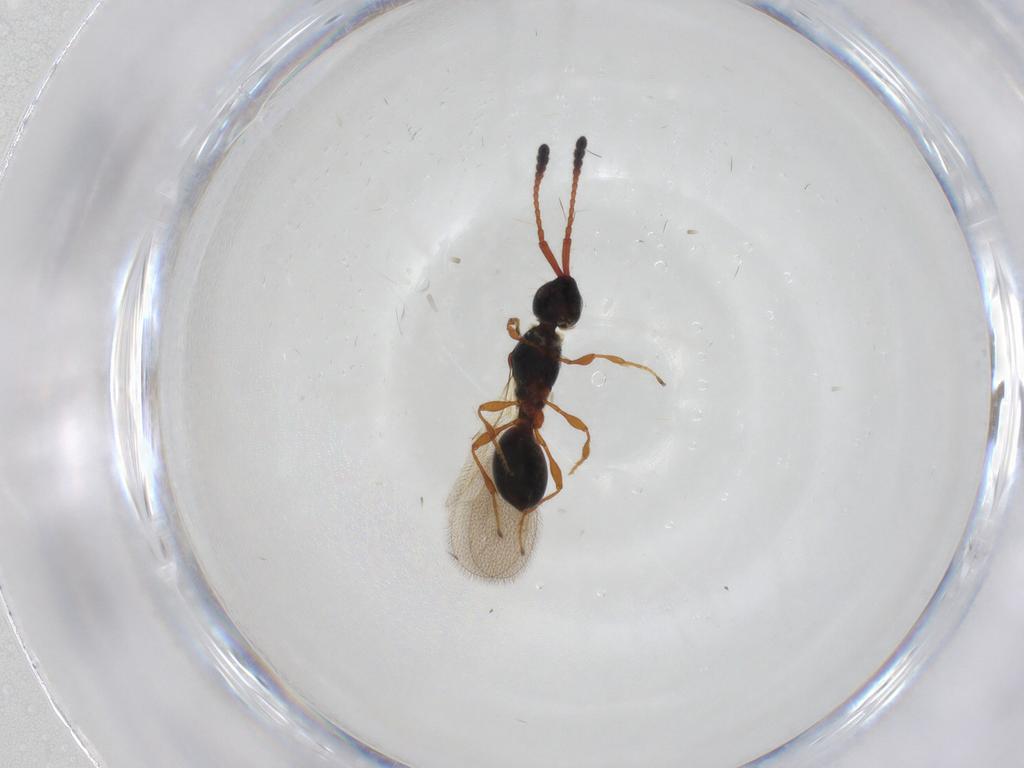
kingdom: Animalia
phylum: Arthropoda
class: Insecta
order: Hymenoptera
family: Diapriidae
